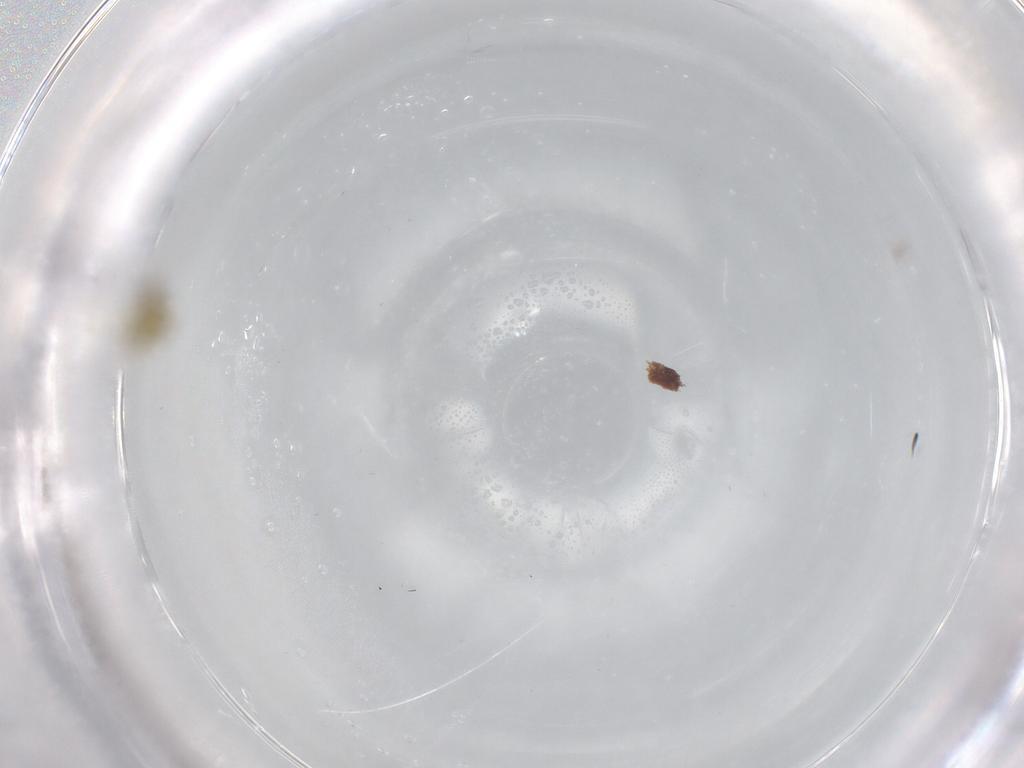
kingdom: Animalia
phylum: Arthropoda
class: Insecta
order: Diptera
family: Ceratopogonidae
